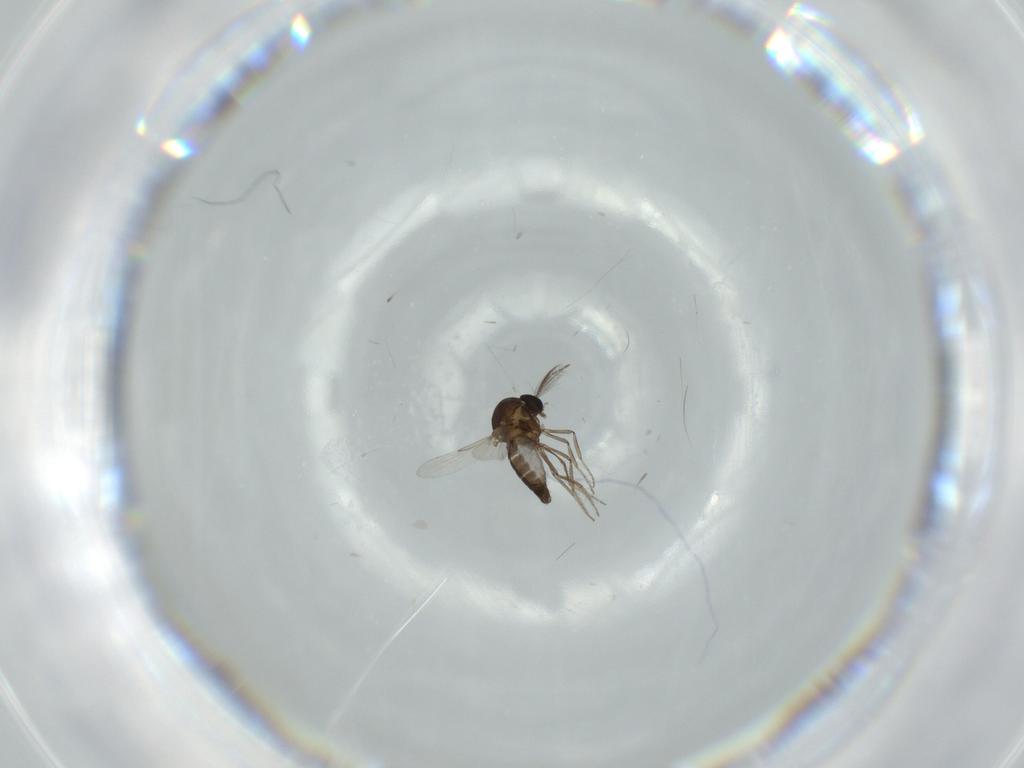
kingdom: Animalia
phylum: Arthropoda
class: Insecta
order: Diptera
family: Ceratopogonidae
